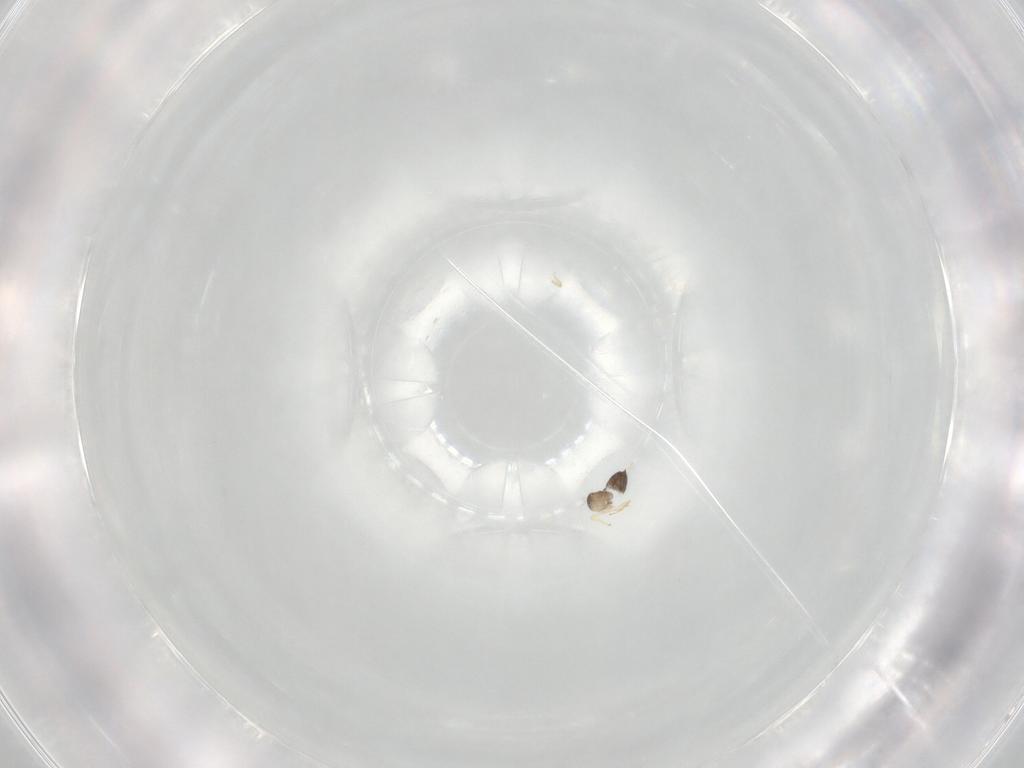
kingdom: Animalia
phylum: Arthropoda
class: Insecta
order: Hymenoptera
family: Mymaridae
